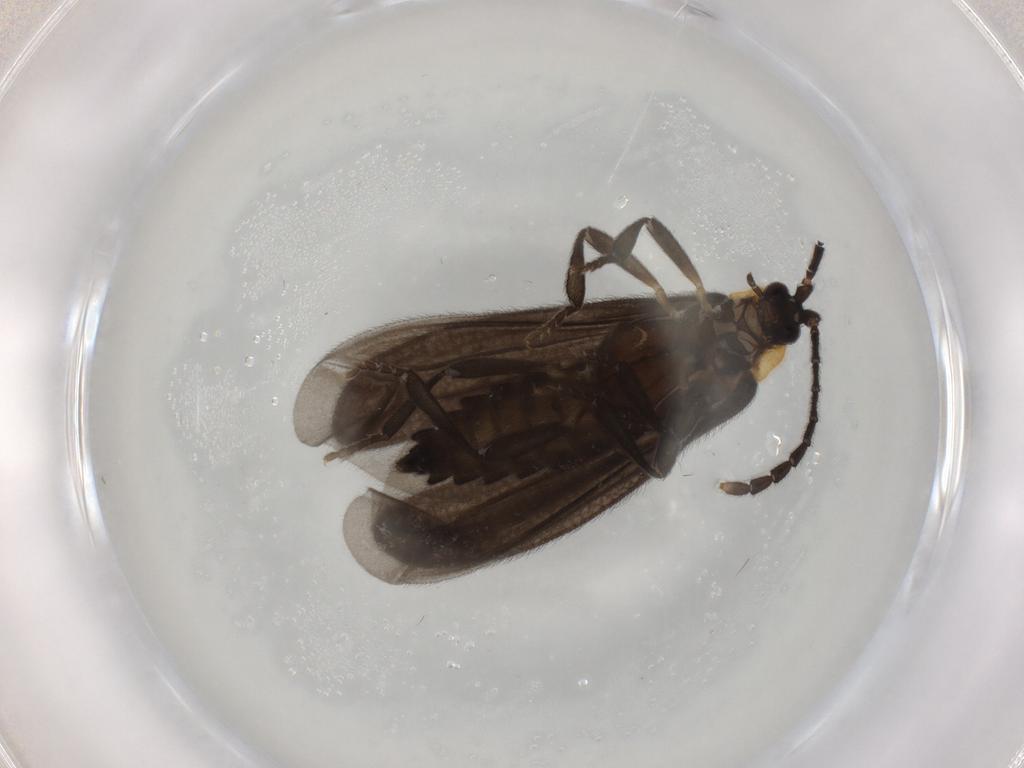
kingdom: Animalia
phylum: Arthropoda
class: Insecta
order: Coleoptera
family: Lycidae
